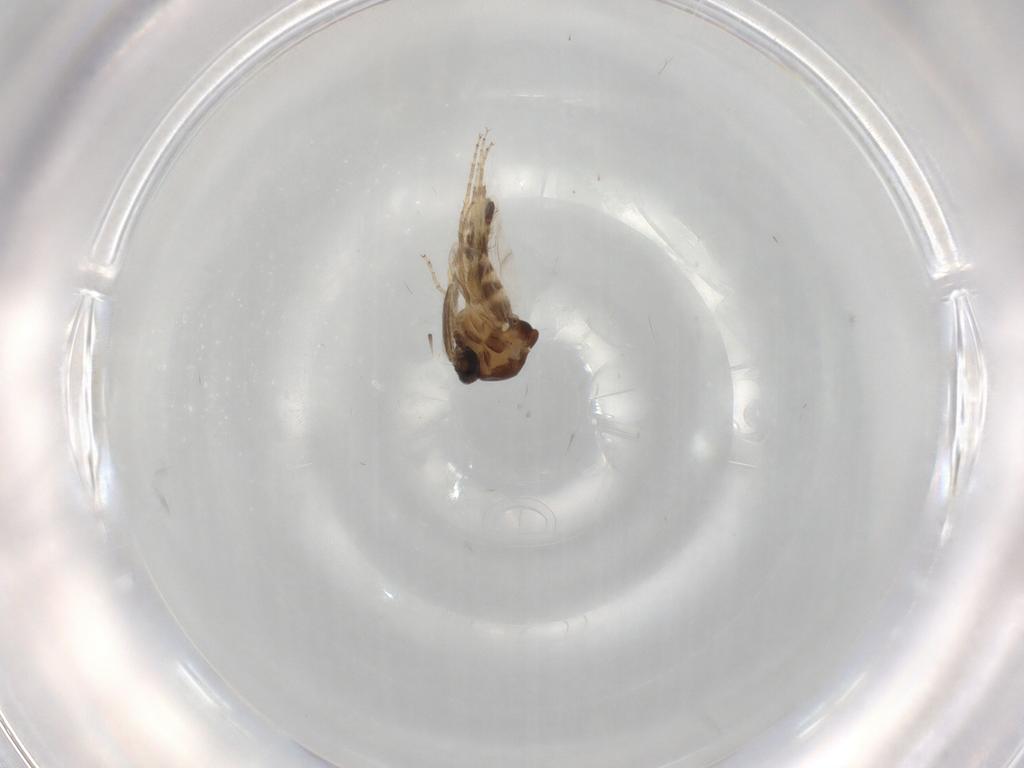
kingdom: Animalia
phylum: Arthropoda
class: Insecta
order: Diptera
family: Ceratopogonidae
